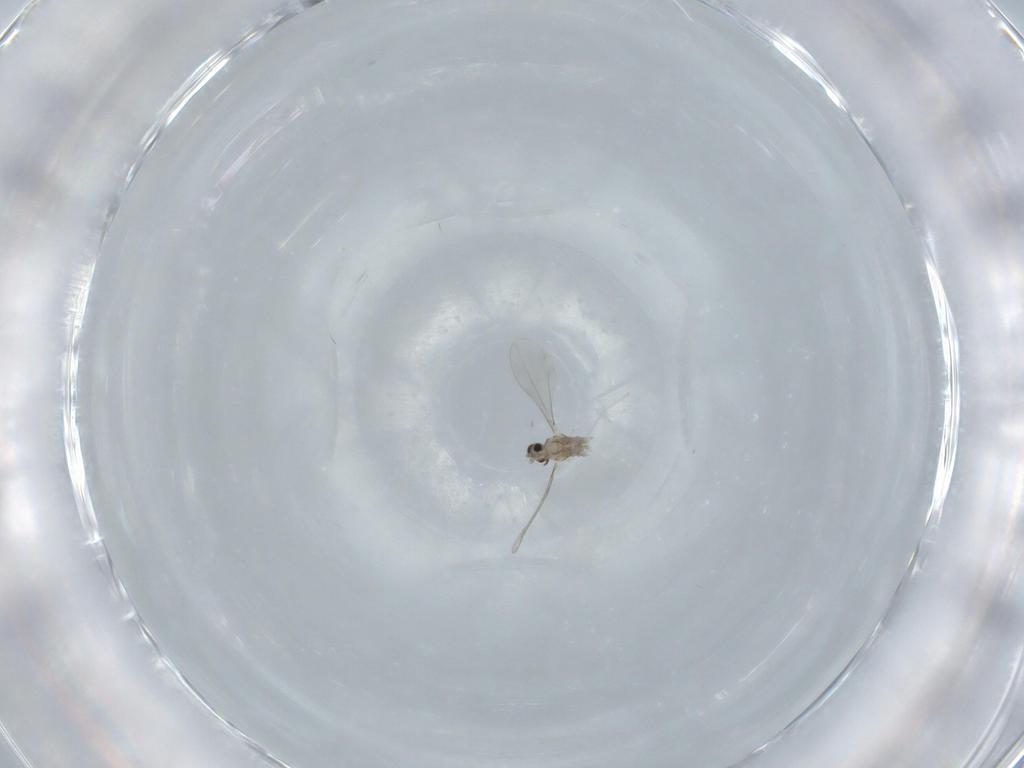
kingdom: Animalia
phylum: Arthropoda
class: Insecta
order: Diptera
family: Cecidomyiidae
